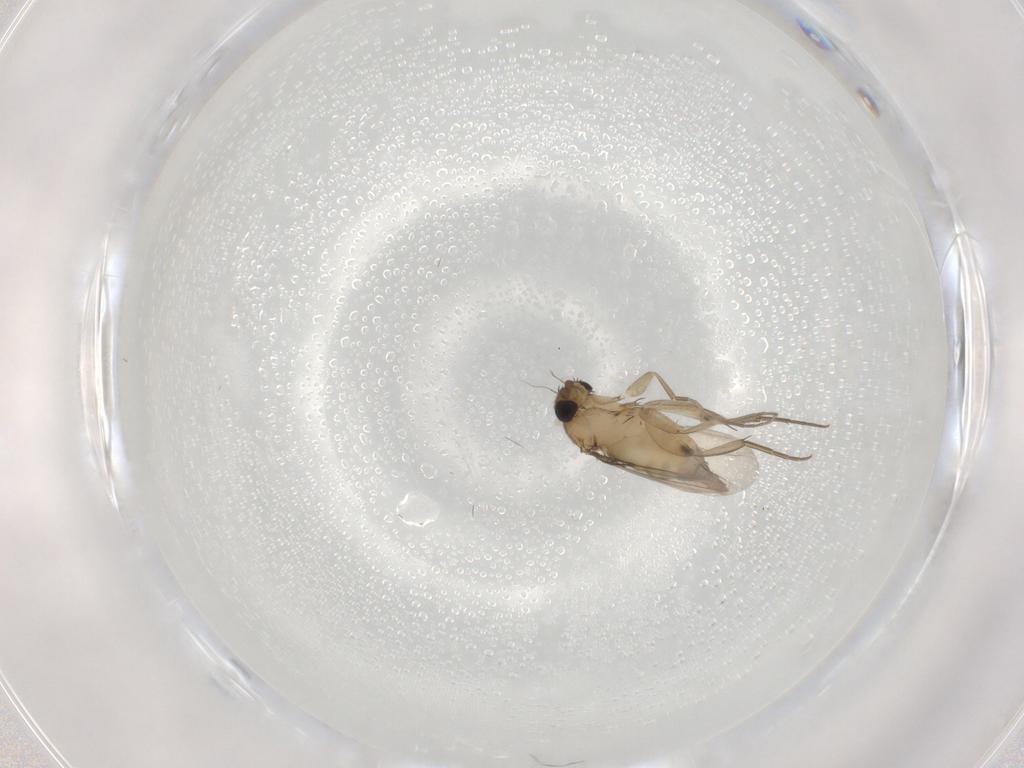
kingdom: Animalia
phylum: Arthropoda
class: Insecta
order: Diptera
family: Phoridae
